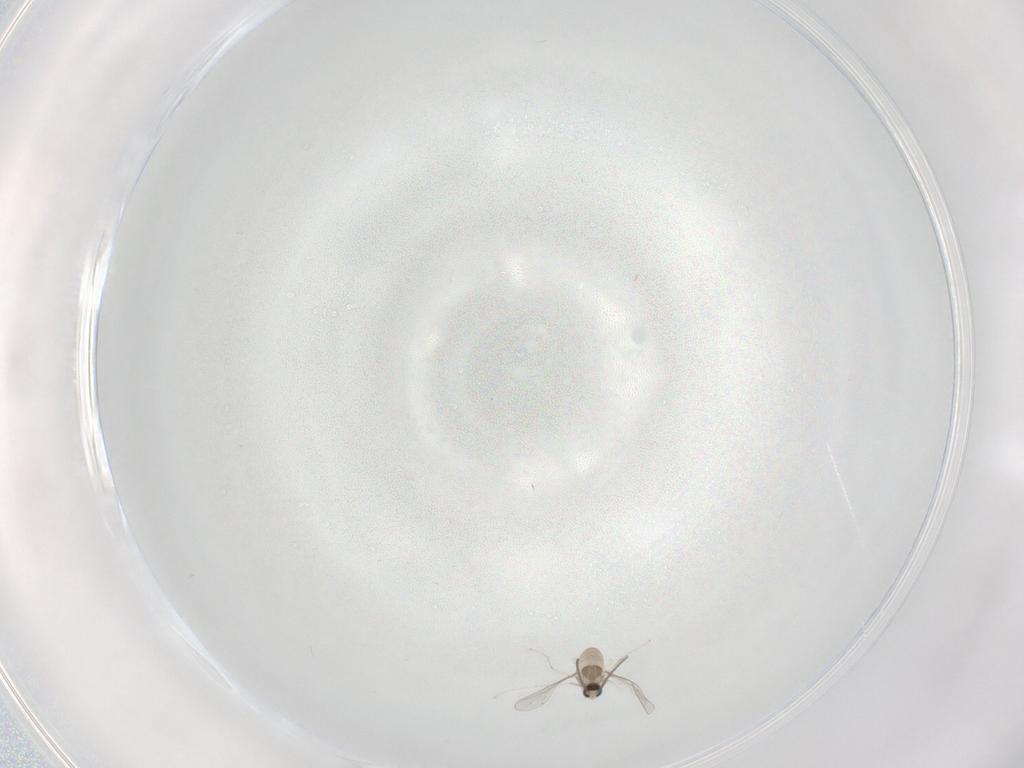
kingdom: Animalia
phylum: Arthropoda
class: Insecta
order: Diptera
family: Cecidomyiidae
